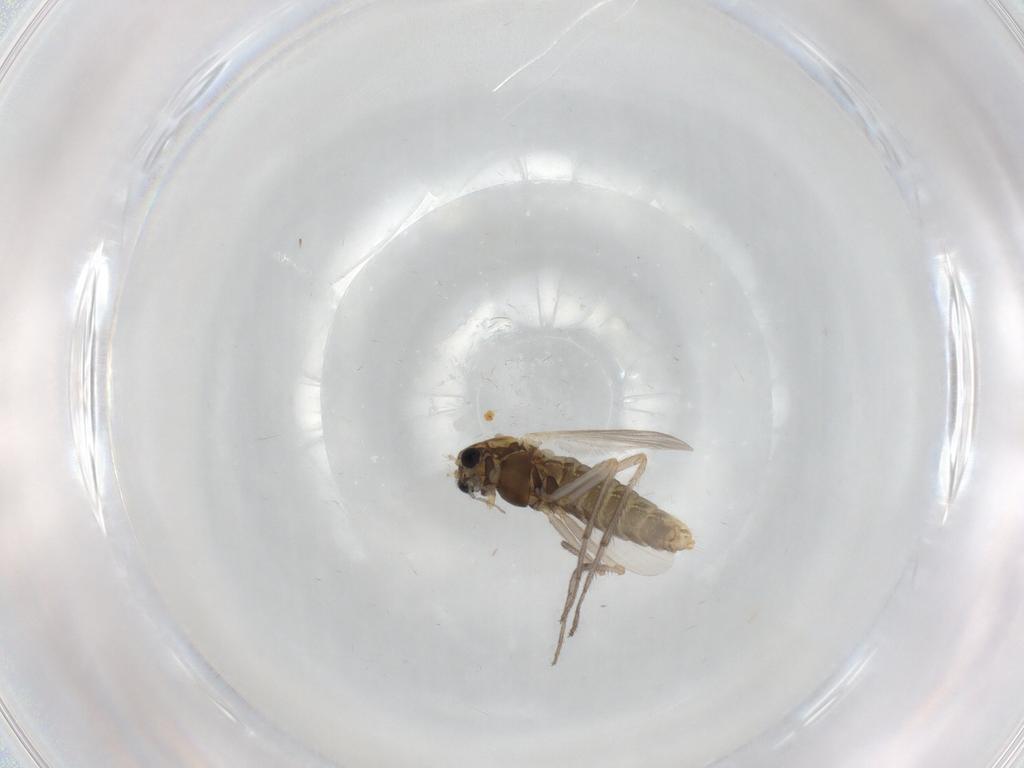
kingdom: Animalia
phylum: Arthropoda
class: Insecta
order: Diptera
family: Chironomidae
